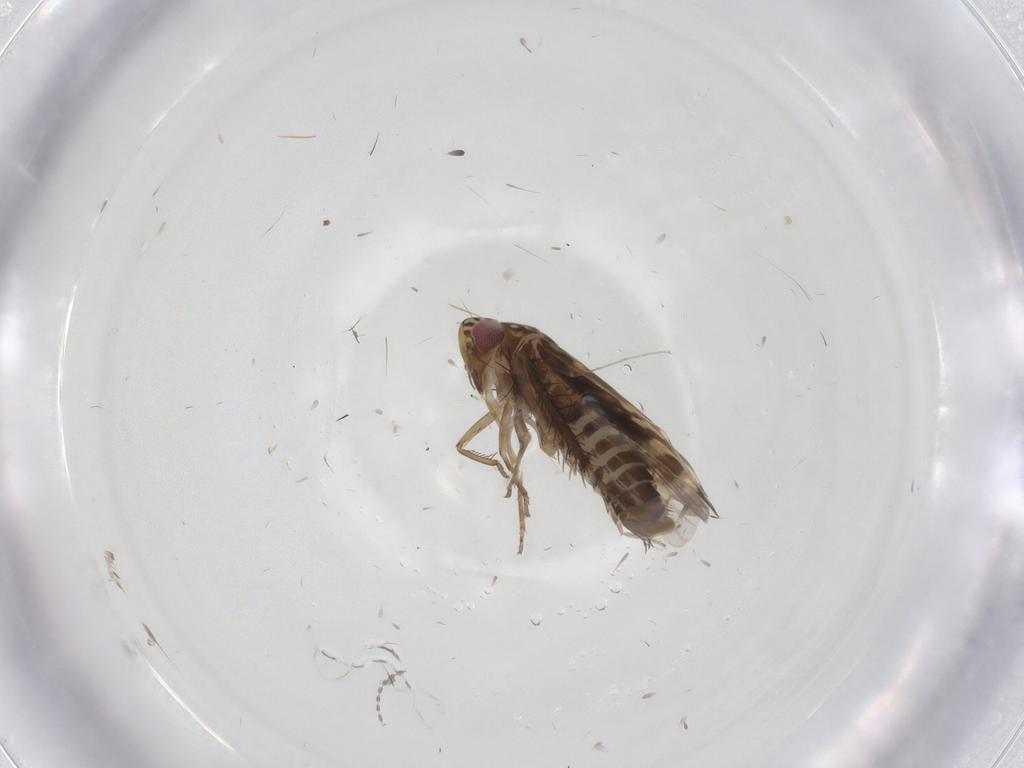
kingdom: Animalia
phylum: Arthropoda
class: Insecta
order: Hemiptera
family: Cicadellidae
